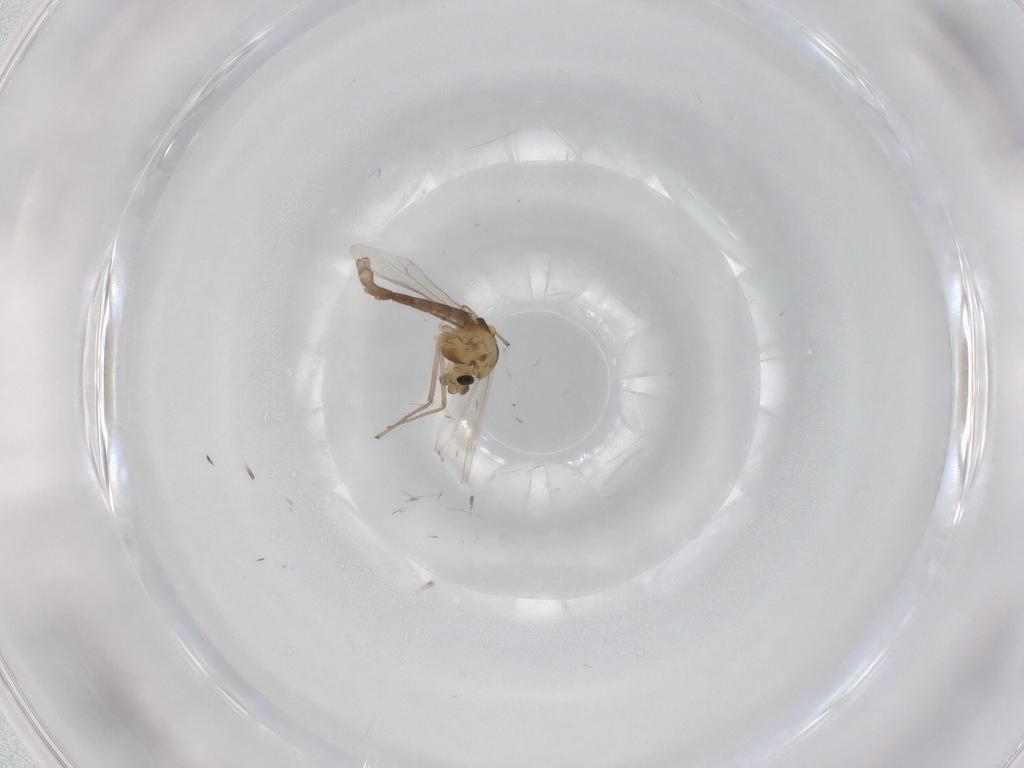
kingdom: Animalia
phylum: Arthropoda
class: Insecta
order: Diptera
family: Chironomidae
